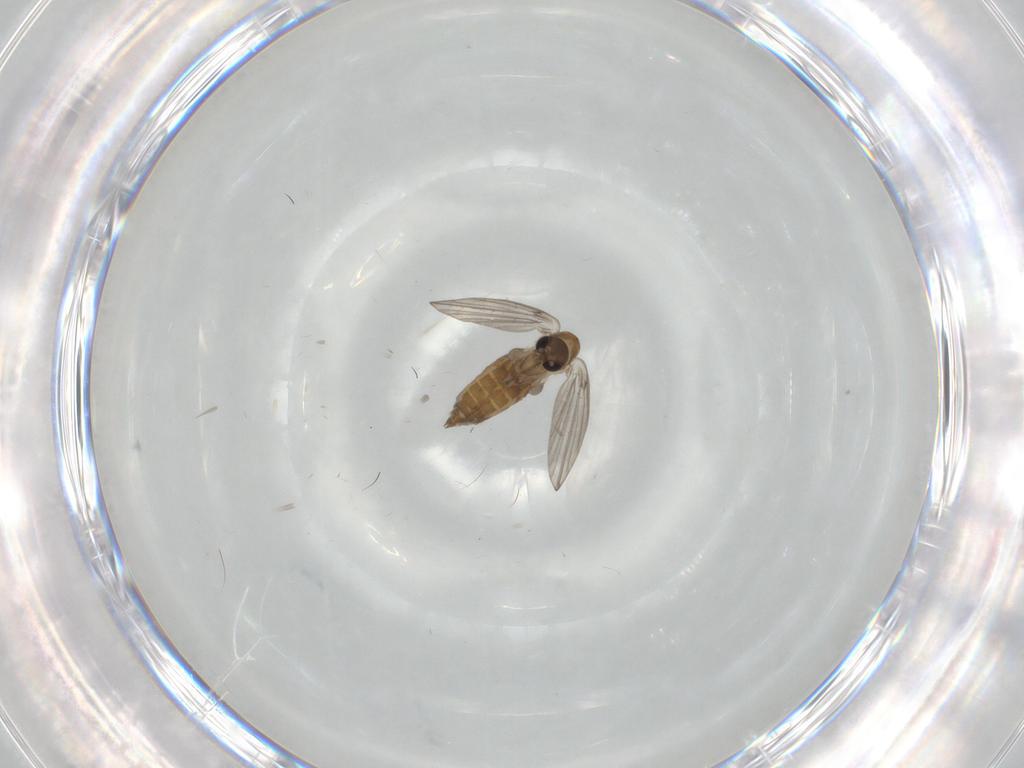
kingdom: Animalia
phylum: Arthropoda
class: Insecta
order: Diptera
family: Psychodidae
